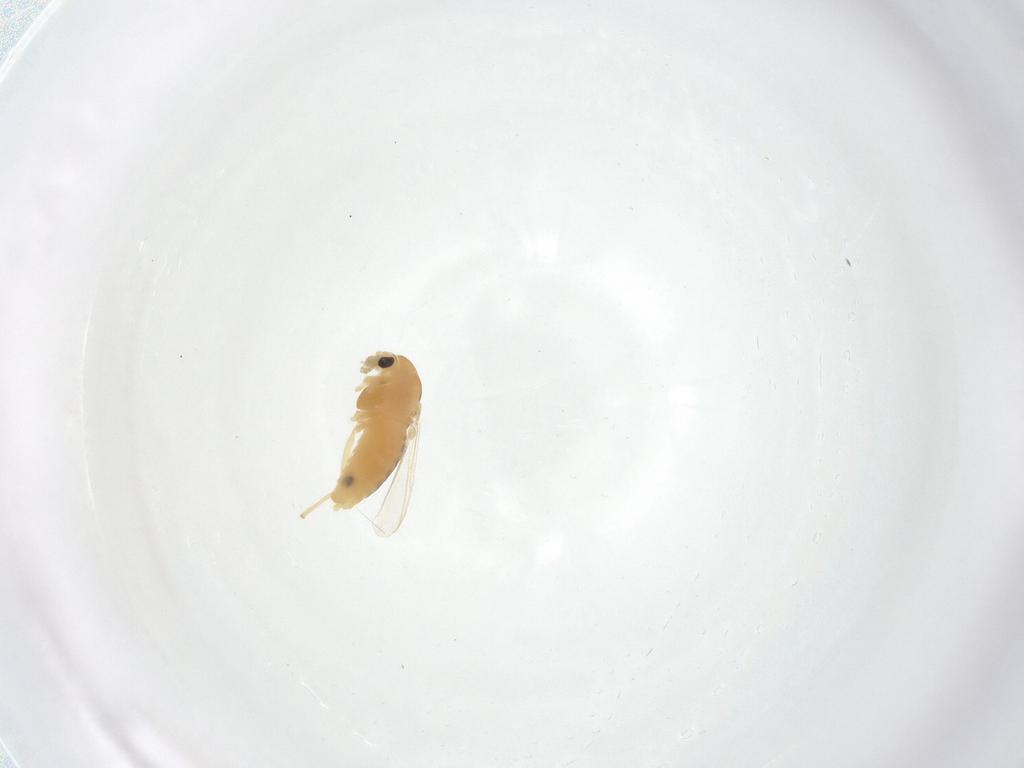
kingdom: Animalia
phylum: Arthropoda
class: Insecta
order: Diptera
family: Chironomidae
